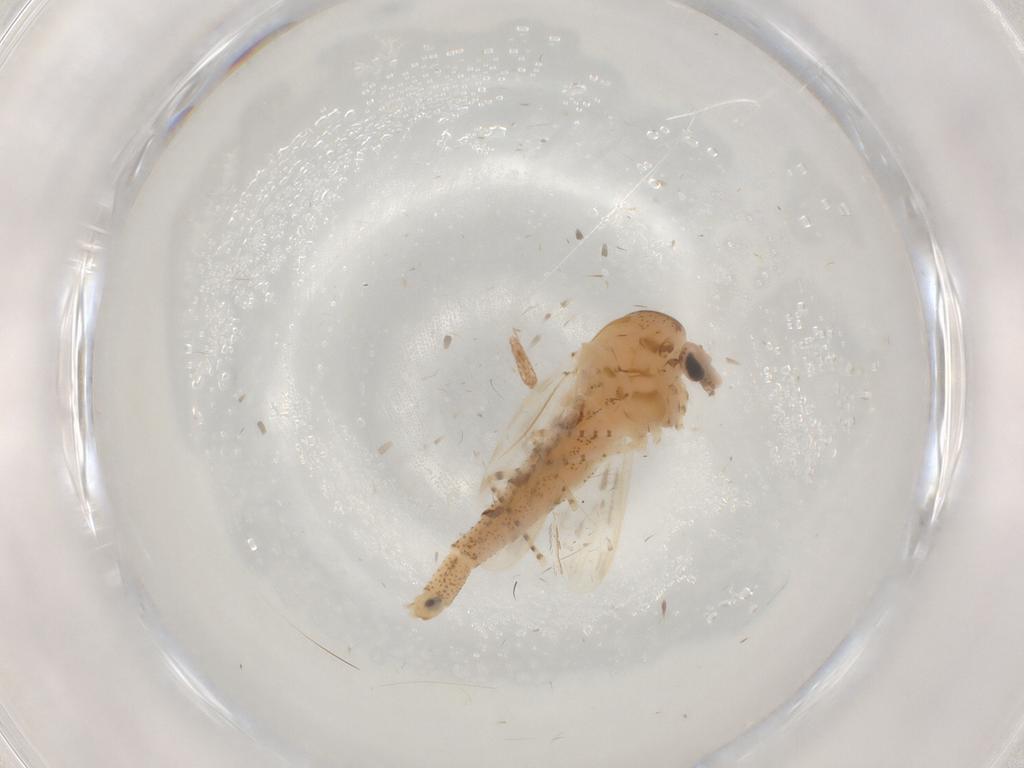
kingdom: Animalia
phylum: Arthropoda
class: Insecta
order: Diptera
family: Chaoboridae
